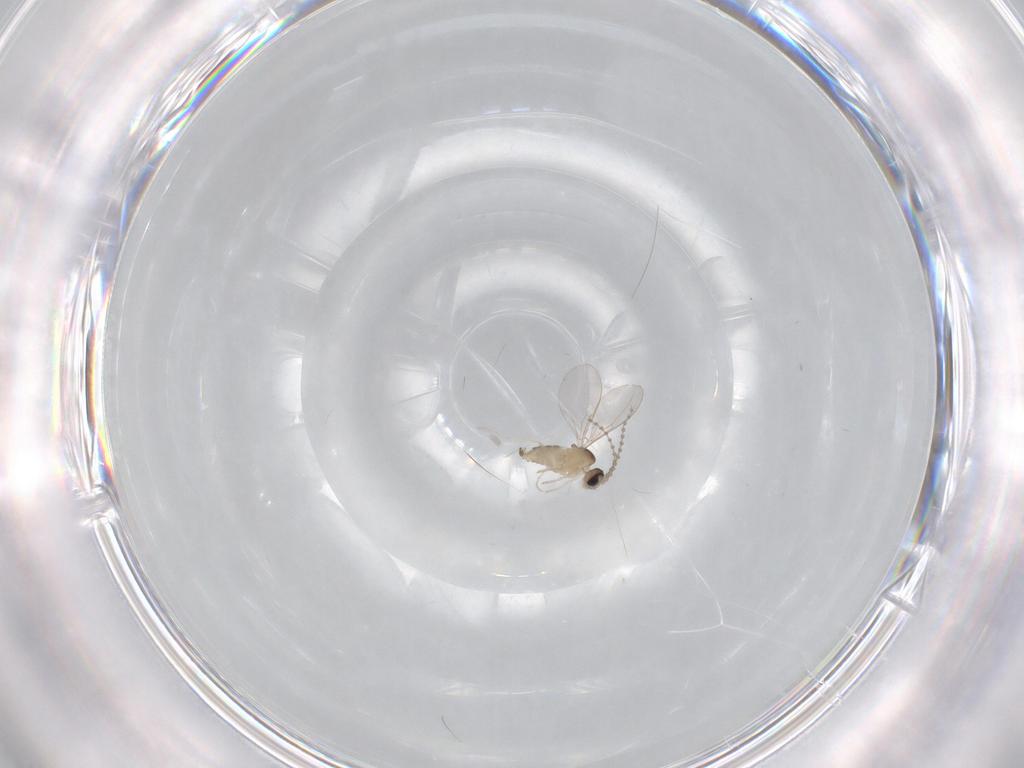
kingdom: Animalia
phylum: Arthropoda
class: Insecta
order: Diptera
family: Cecidomyiidae
